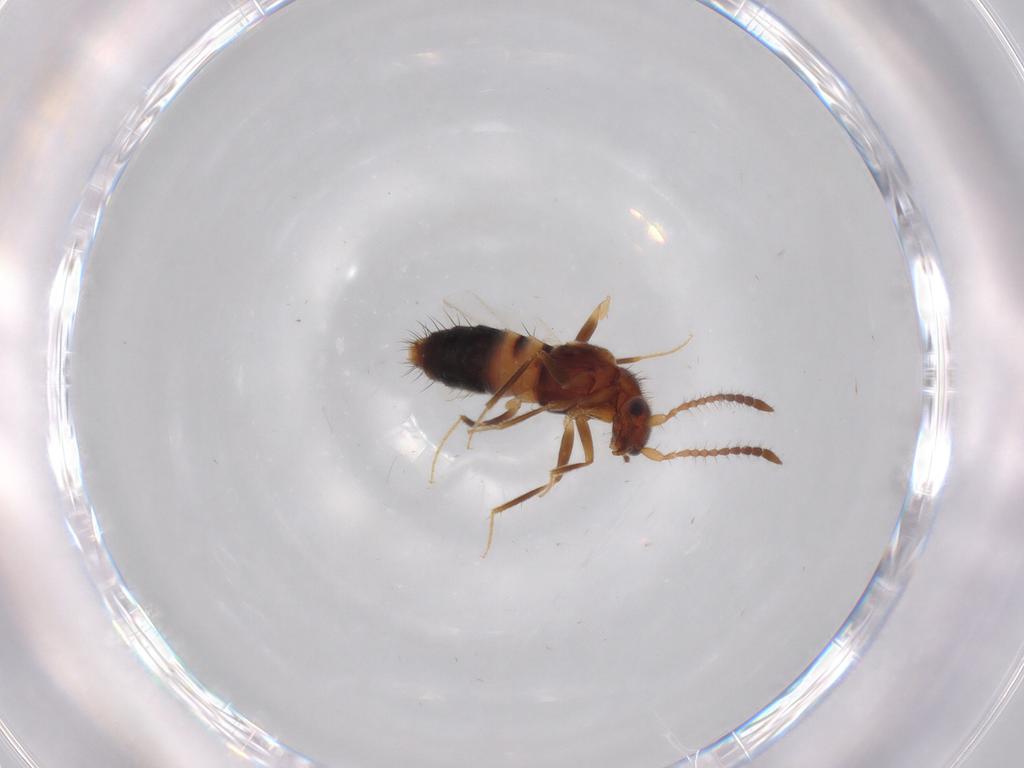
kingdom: Animalia
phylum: Arthropoda
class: Insecta
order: Coleoptera
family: Staphylinidae
